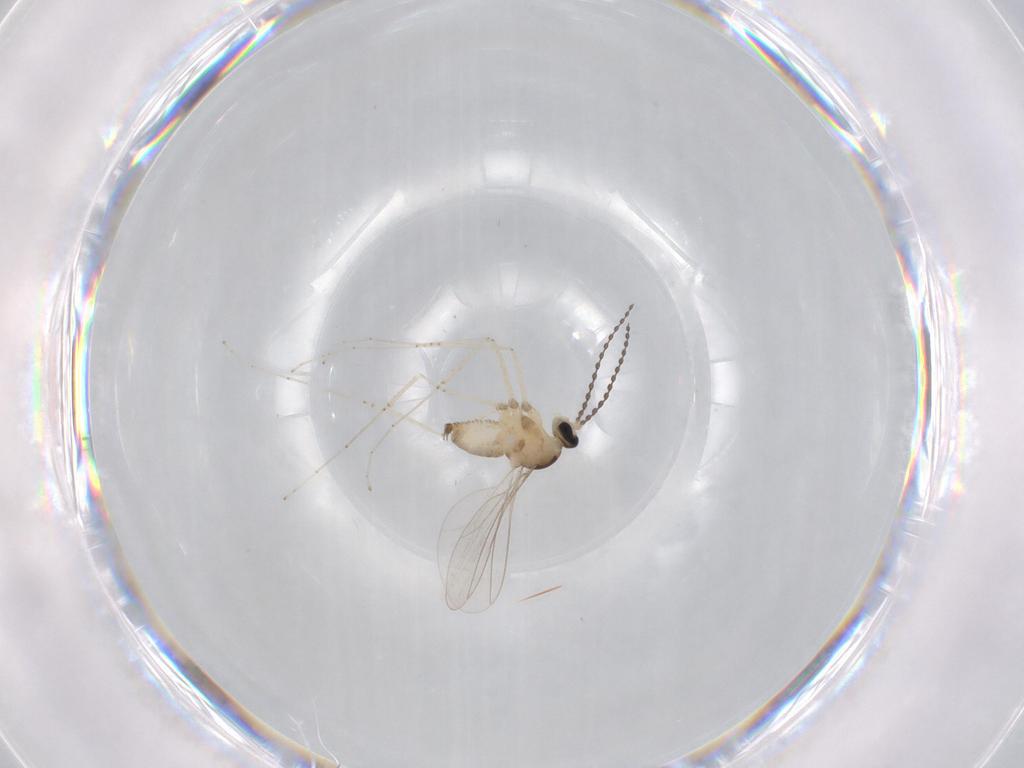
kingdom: Animalia
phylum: Arthropoda
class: Insecta
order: Diptera
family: Cecidomyiidae
